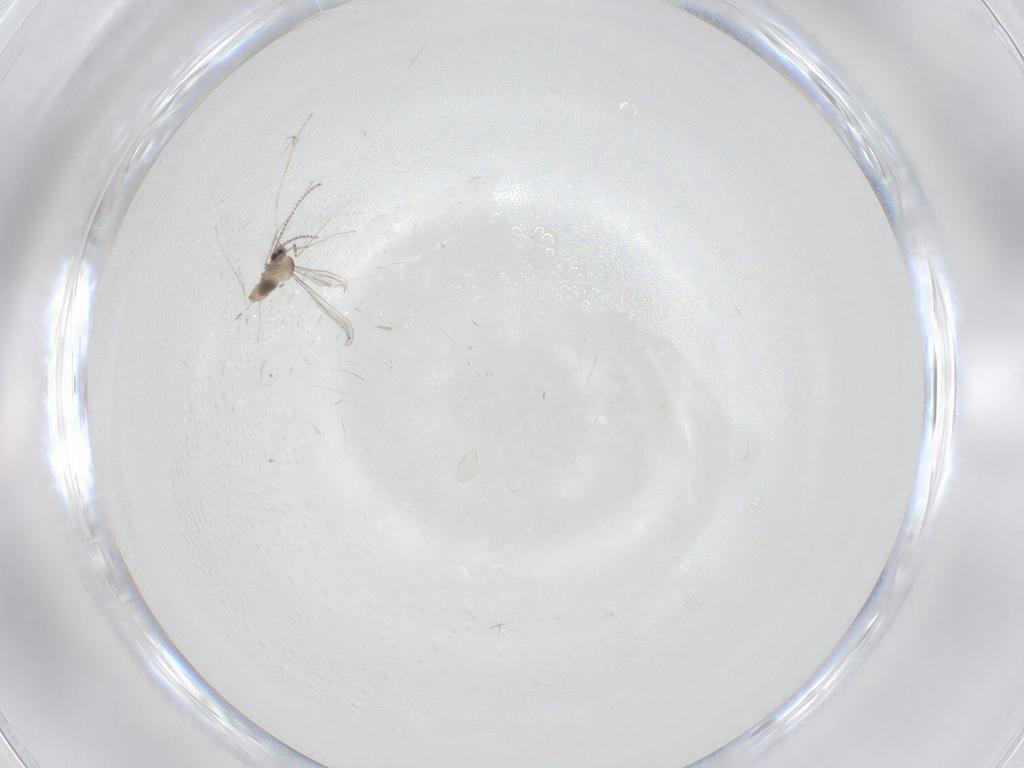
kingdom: Animalia
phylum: Arthropoda
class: Insecta
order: Diptera
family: Cecidomyiidae
